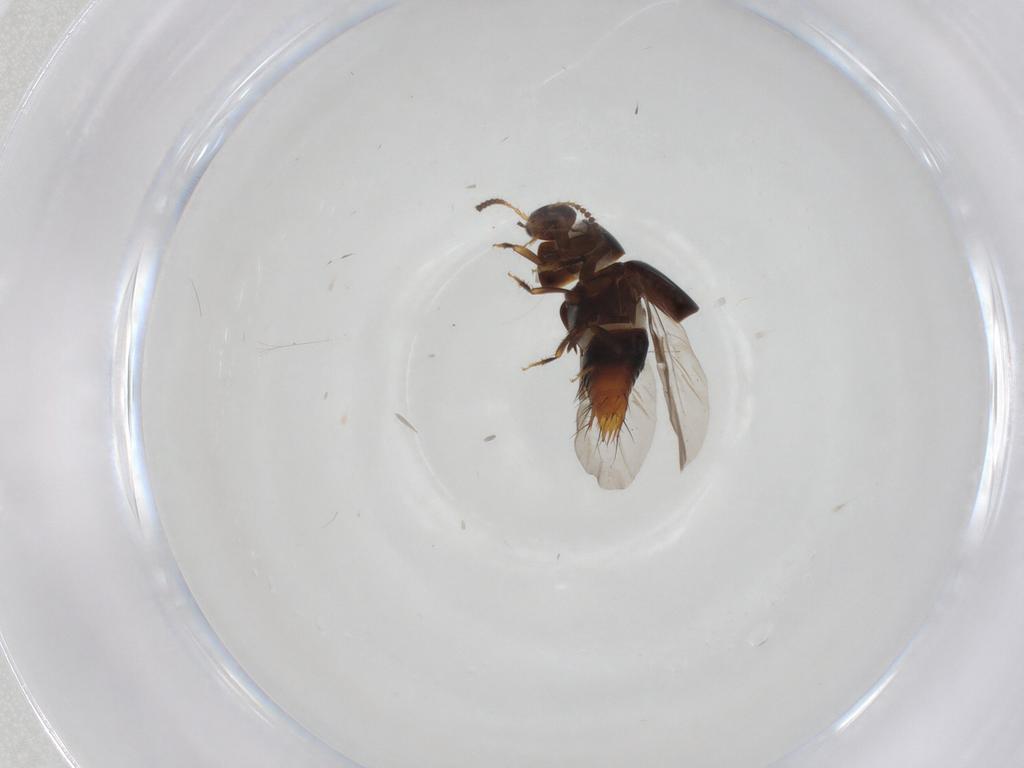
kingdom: Animalia
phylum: Arthropoda
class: Insecta
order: Coleoptera
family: Staphylinidae
